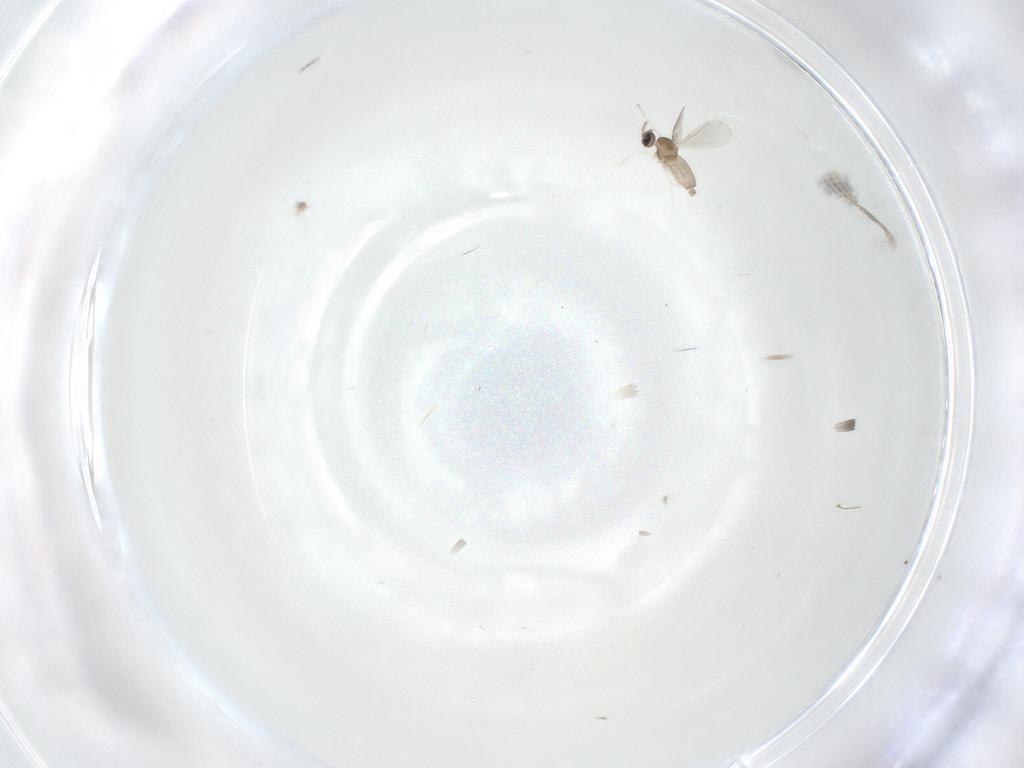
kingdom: Animalia
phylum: Arthropoda
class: Insecta
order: Diptera
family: Cecidomyiidae
